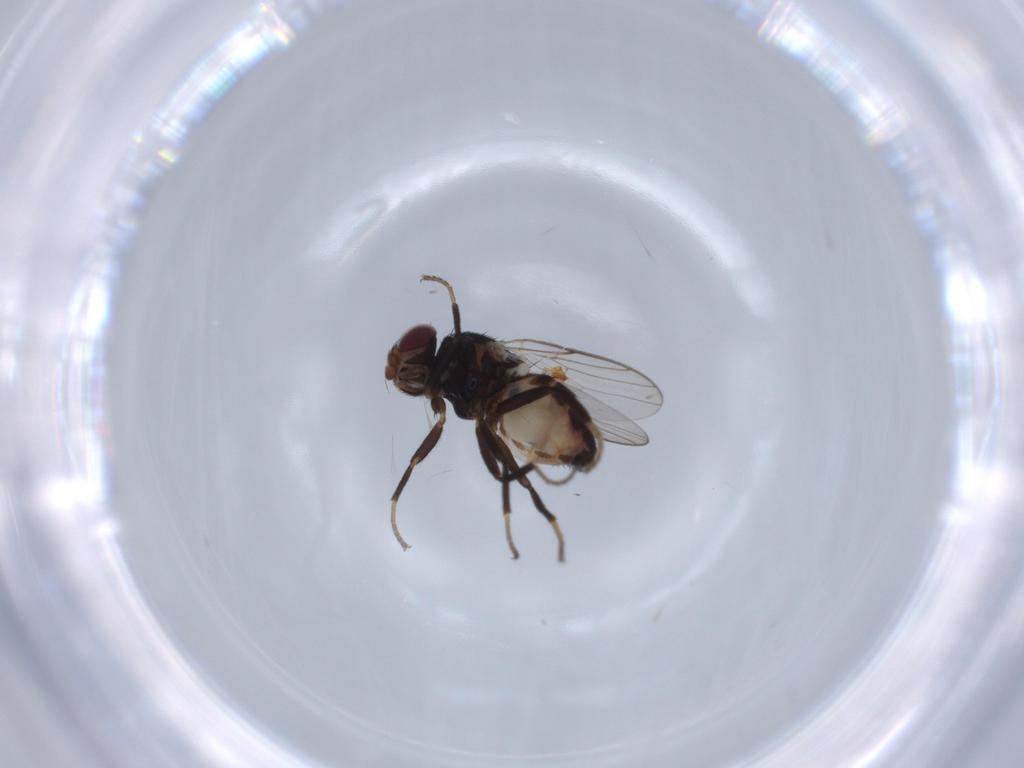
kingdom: Animalia
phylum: Arthropoda
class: Insecta
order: Diptera
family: Chloropidae
